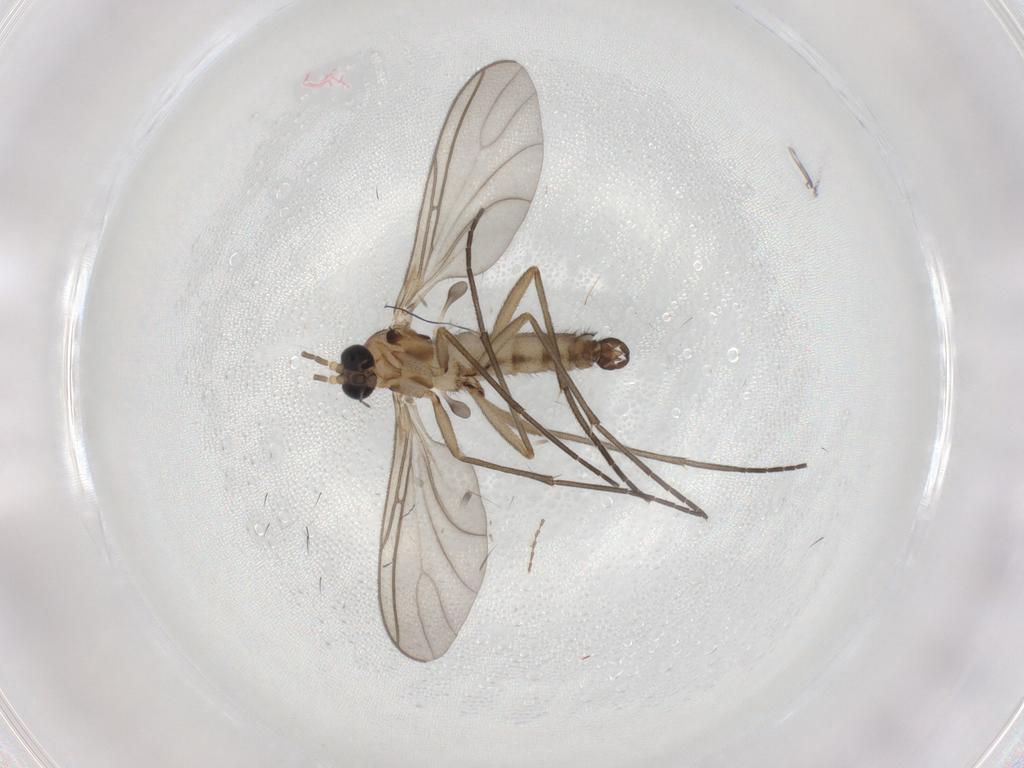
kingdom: Animalia
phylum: Arthropoda
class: Insecta
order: Diptera
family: Sciaridae
